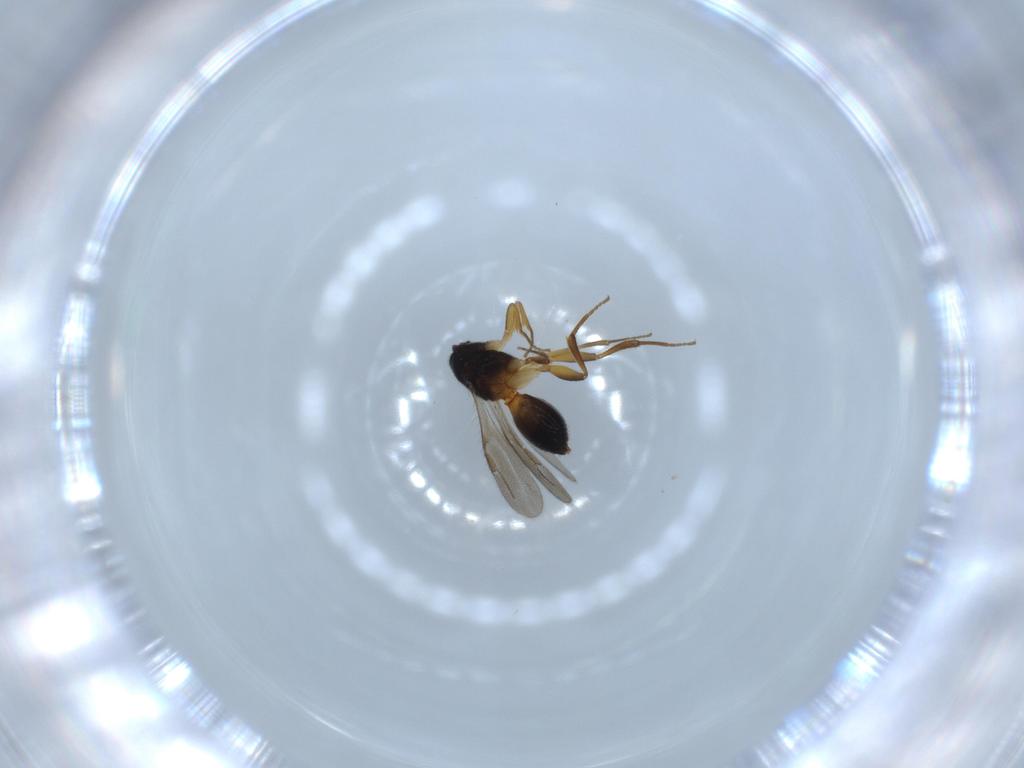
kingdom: Animalia
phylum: Arthropoda
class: Insecta
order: Hymenoptera
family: Megaspilidae
